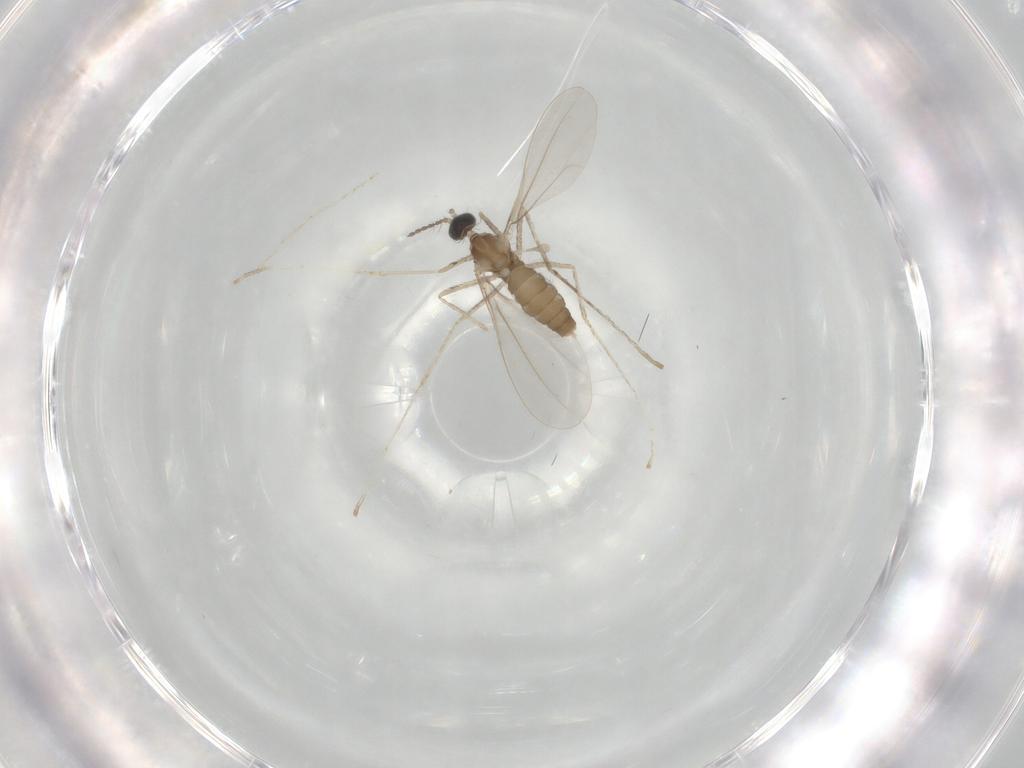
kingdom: Animalia
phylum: Arthropoda
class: Insecta
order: Diptera
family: Cecidomyiidae
